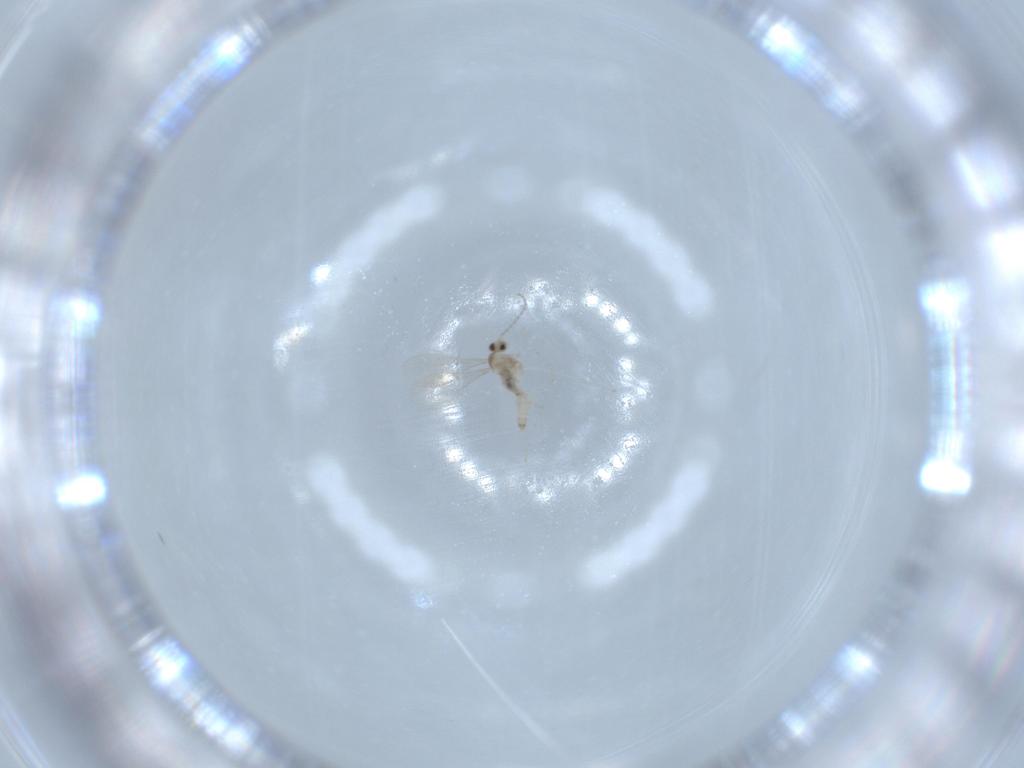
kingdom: Animalia
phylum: Arthropoda
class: Insecta
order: Diptera
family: Cecidomyiidae
